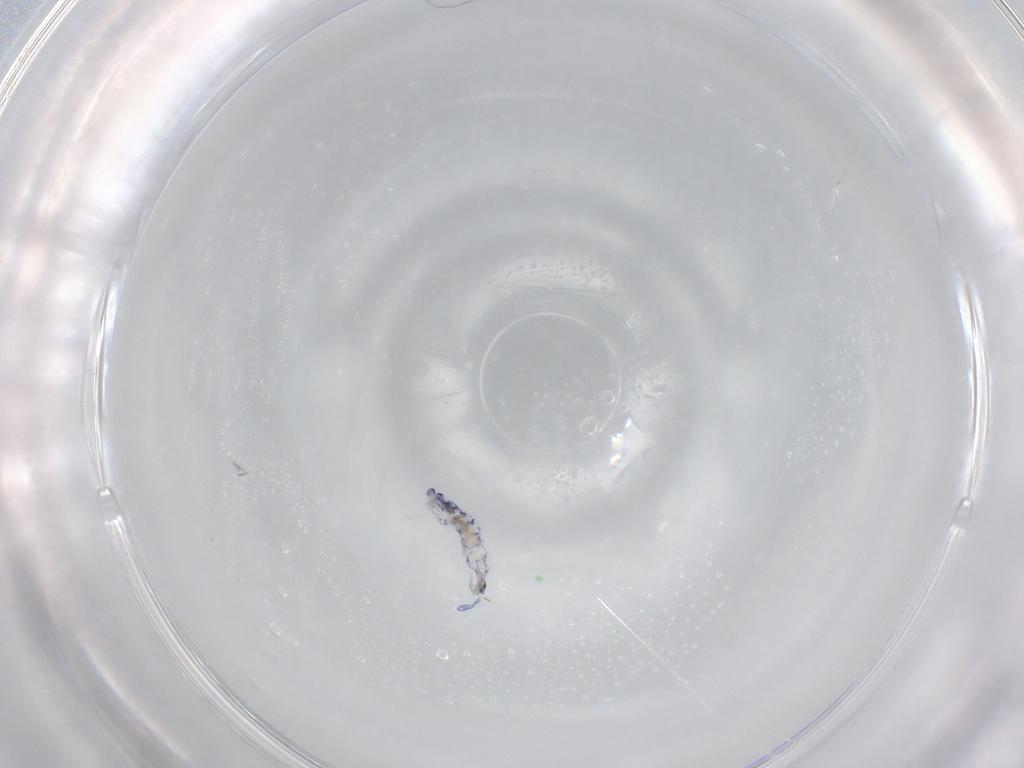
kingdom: Animalia
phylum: Arthropoda
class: Collembola
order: Entomobryomorpha
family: Entomobryidae
